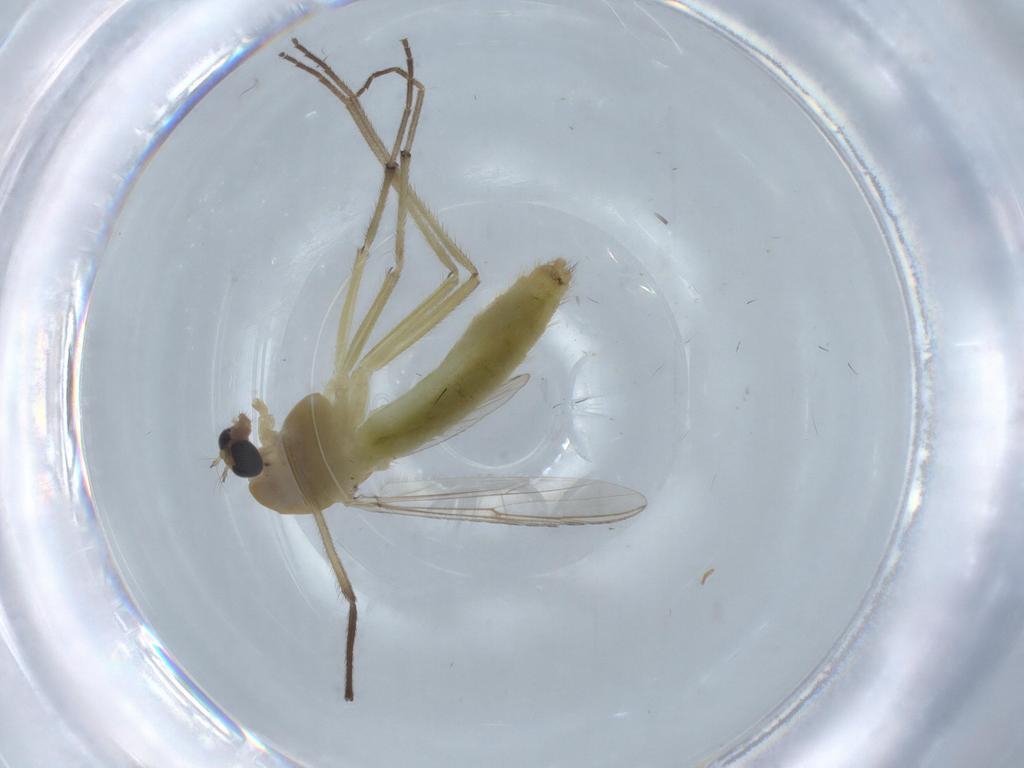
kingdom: Animalia
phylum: Arthropoda
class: Insecta
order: Diptera
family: Chironomidae
